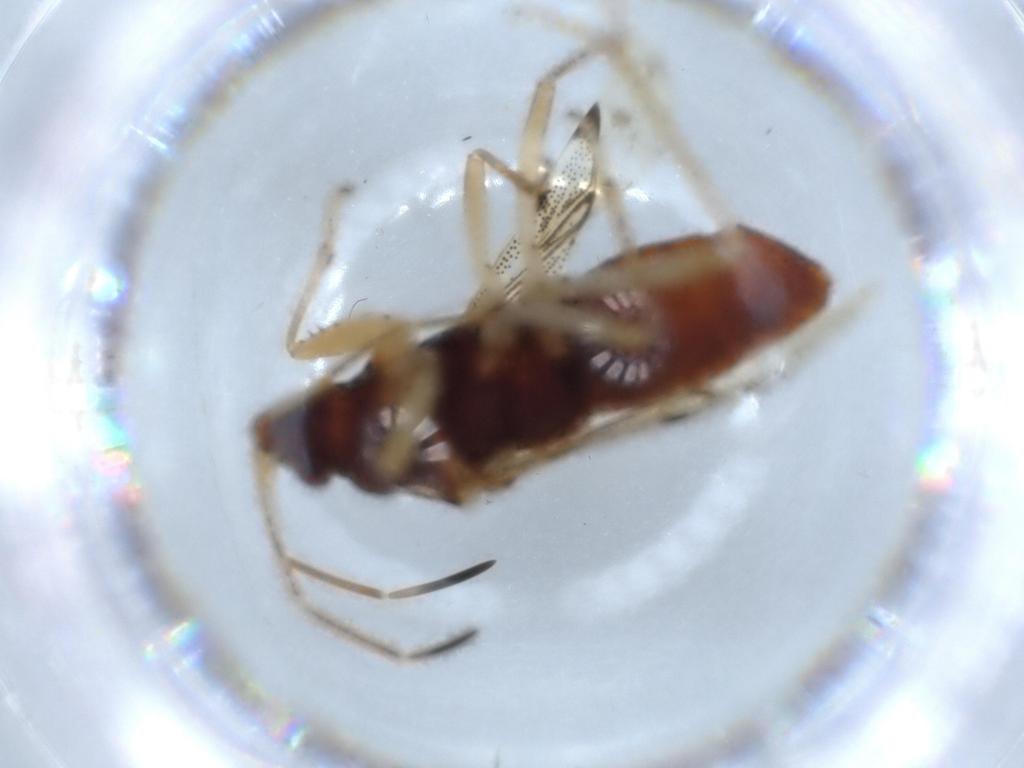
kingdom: Animalia
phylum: Arthropoda
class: Insecta
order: Hemiptera
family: Rhyparochromidae
